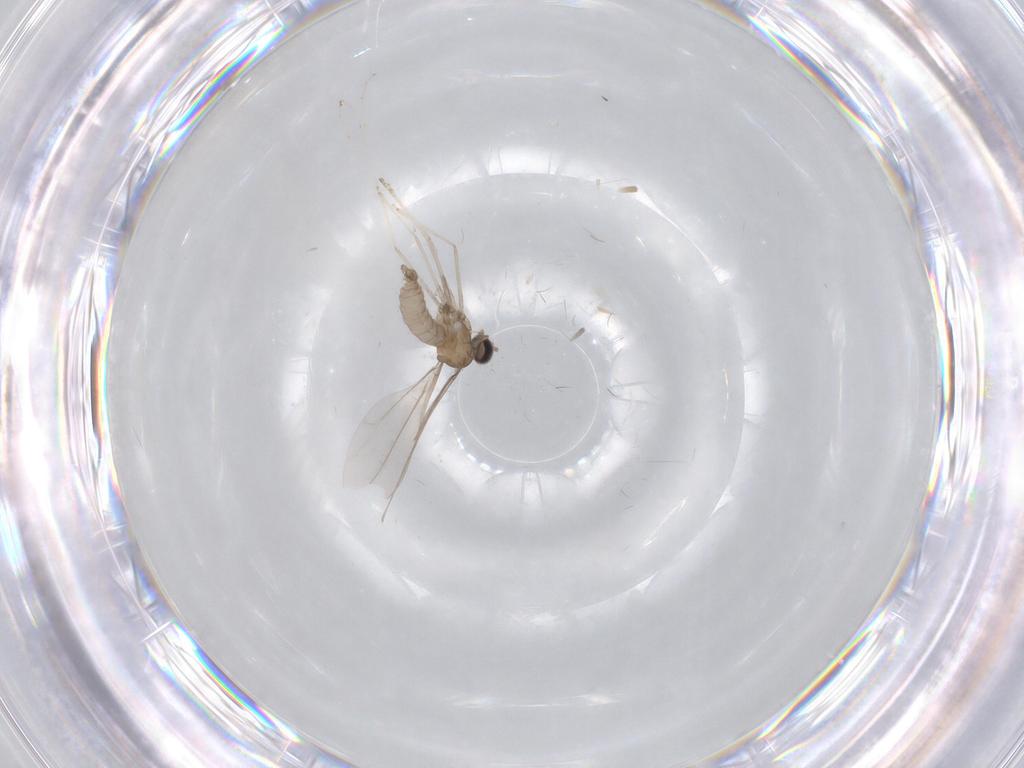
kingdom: Animalia
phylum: Arthropoda
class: Insecta
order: Diptera
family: Cecidomyiidae
